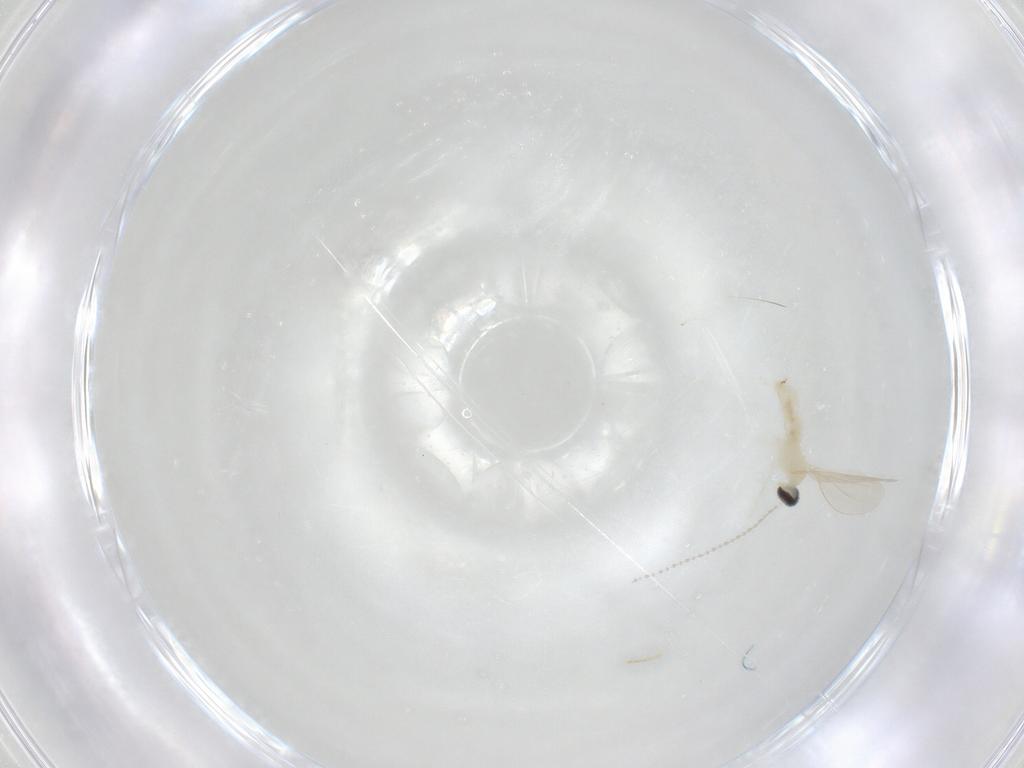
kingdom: Animalia
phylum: Arthropoda
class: Insecta
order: Diptera
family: Cecidomyiidae
